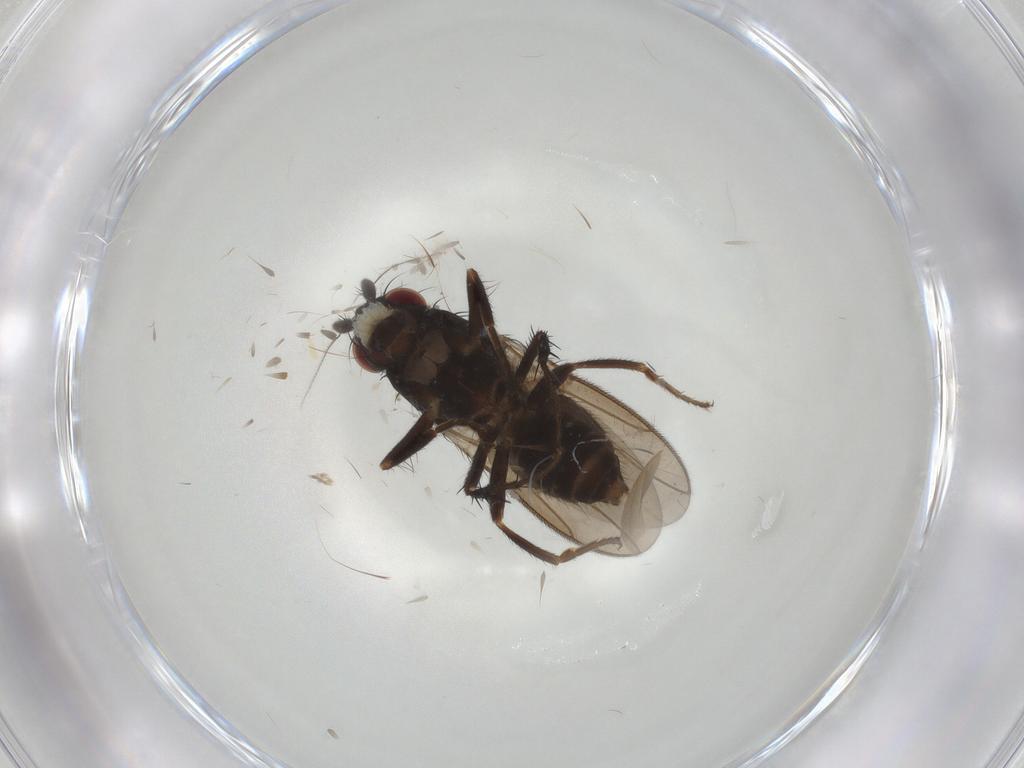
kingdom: Animalia
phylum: Arthropoda
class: Insecta
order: Diptera
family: Sphaeroceridae
